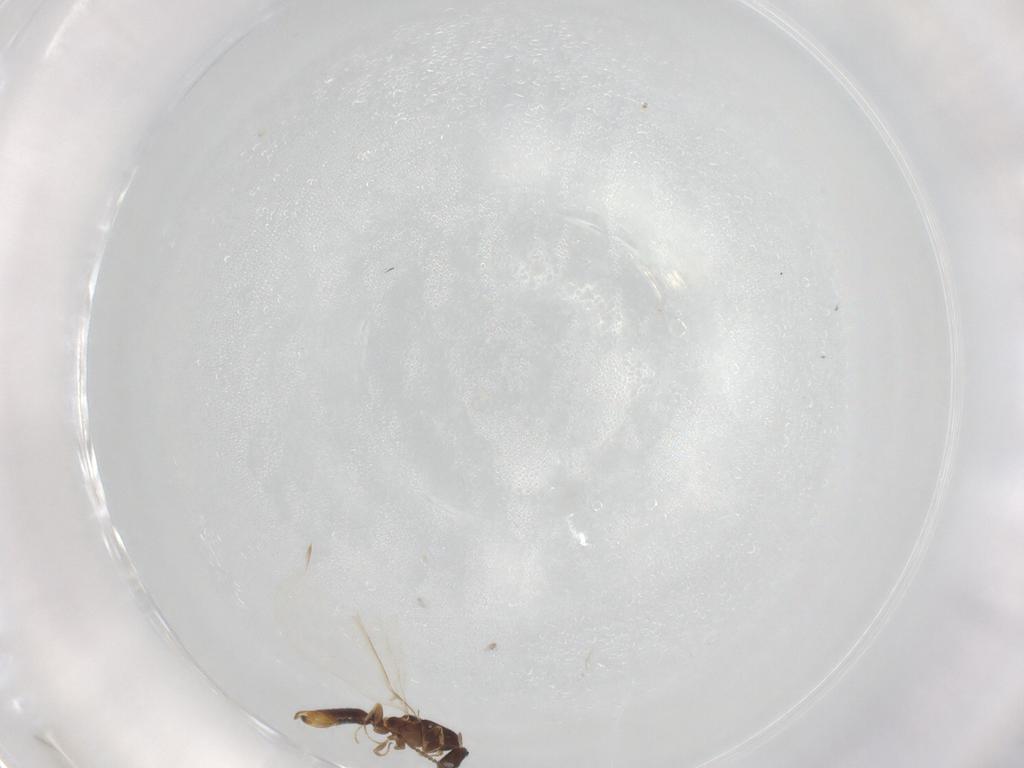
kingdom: Animalia
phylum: Arthropoda
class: Insecta
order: Hymenoptera
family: Formicidae
